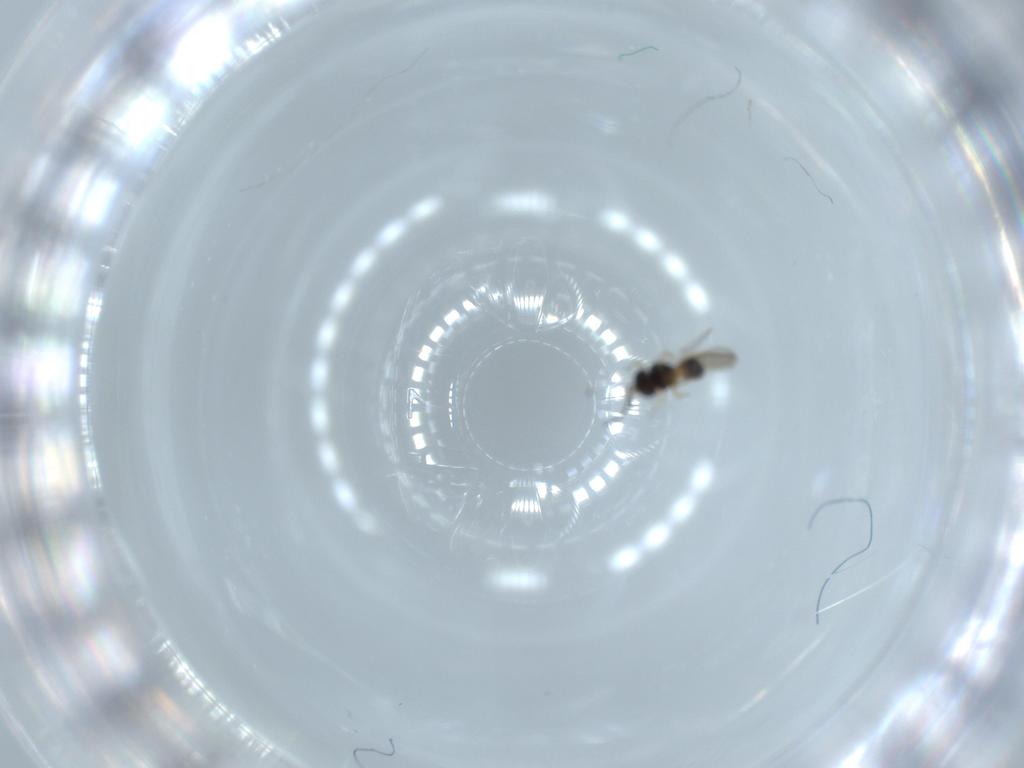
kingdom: Animalia
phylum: Arthropoda
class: Insecta
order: Hymenoptera
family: Scelionidae
